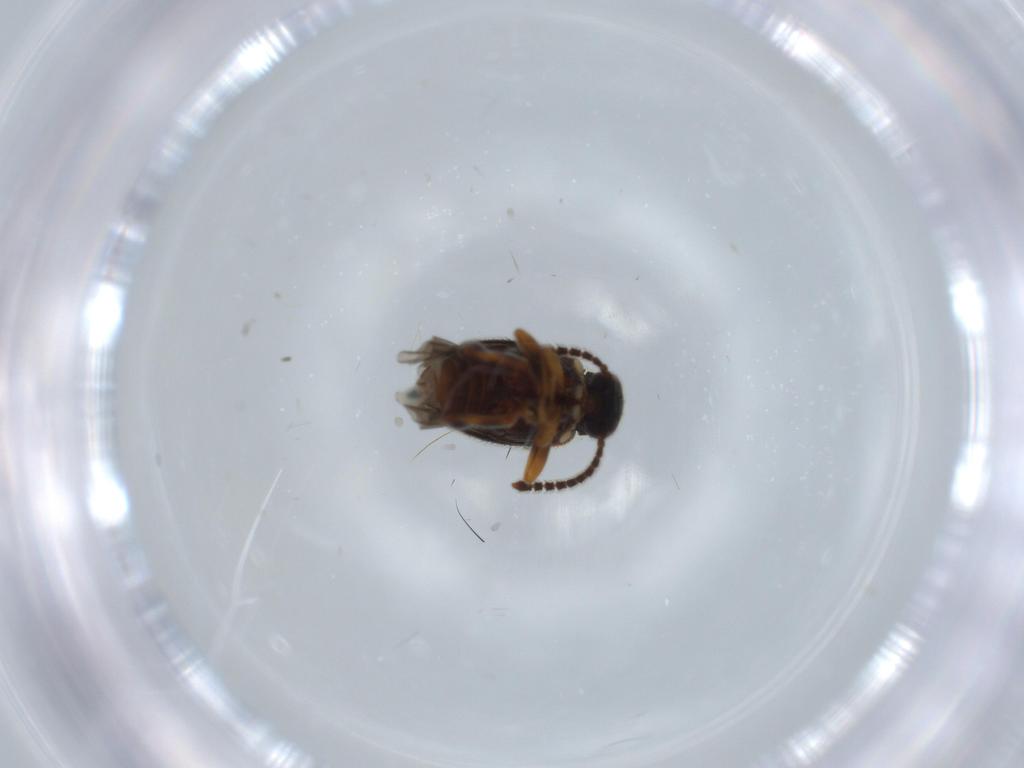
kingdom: Animalia
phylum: Arthropoda
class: Insecta
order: Coleoptera
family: Aderidae
